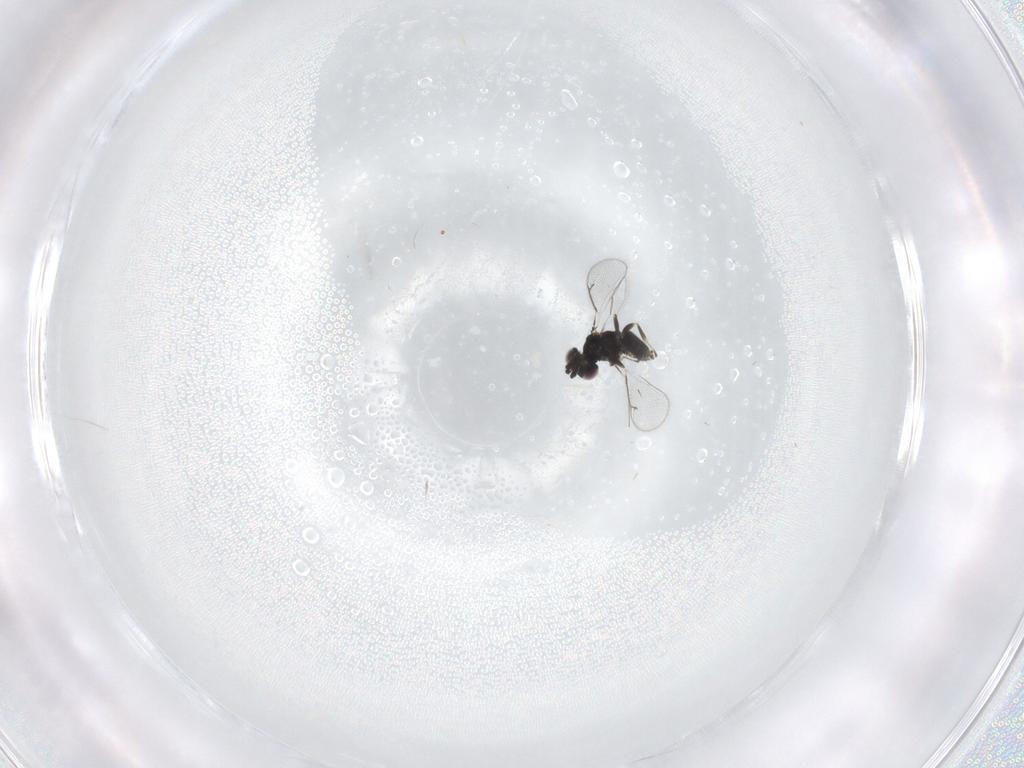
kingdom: Animalia
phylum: Arthropoda
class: Insecta
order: Hymenoptera
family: Eulophidae
